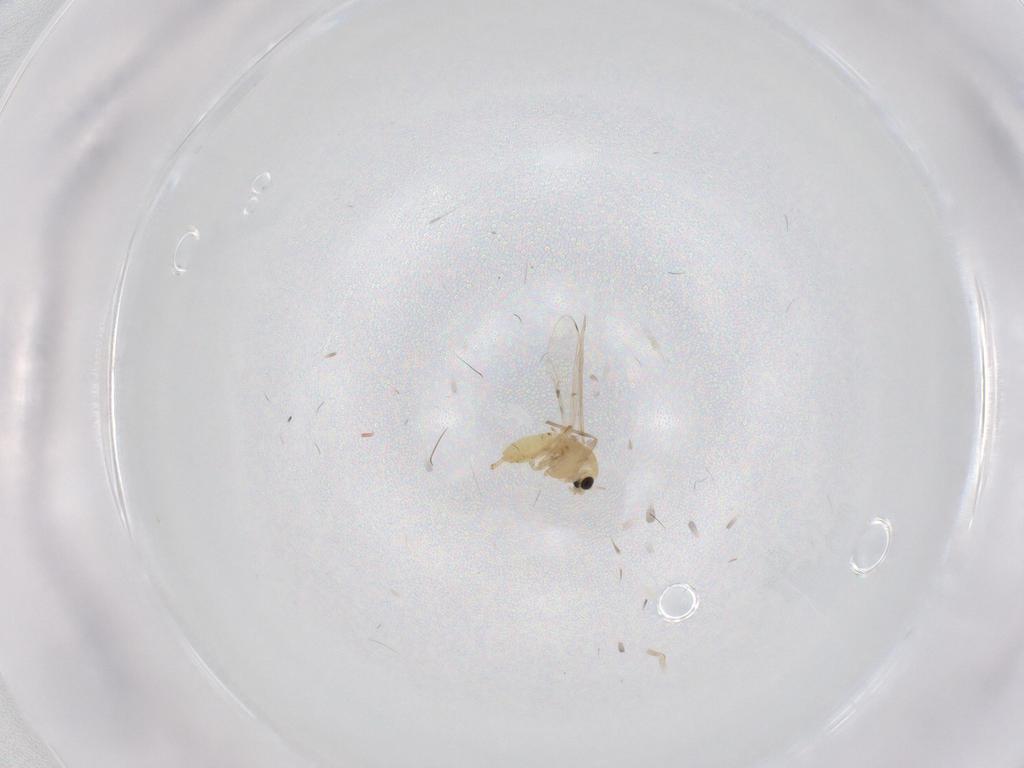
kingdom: Animalia
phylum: Arthropoda
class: Insecta
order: Diptera
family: Chironomidae
